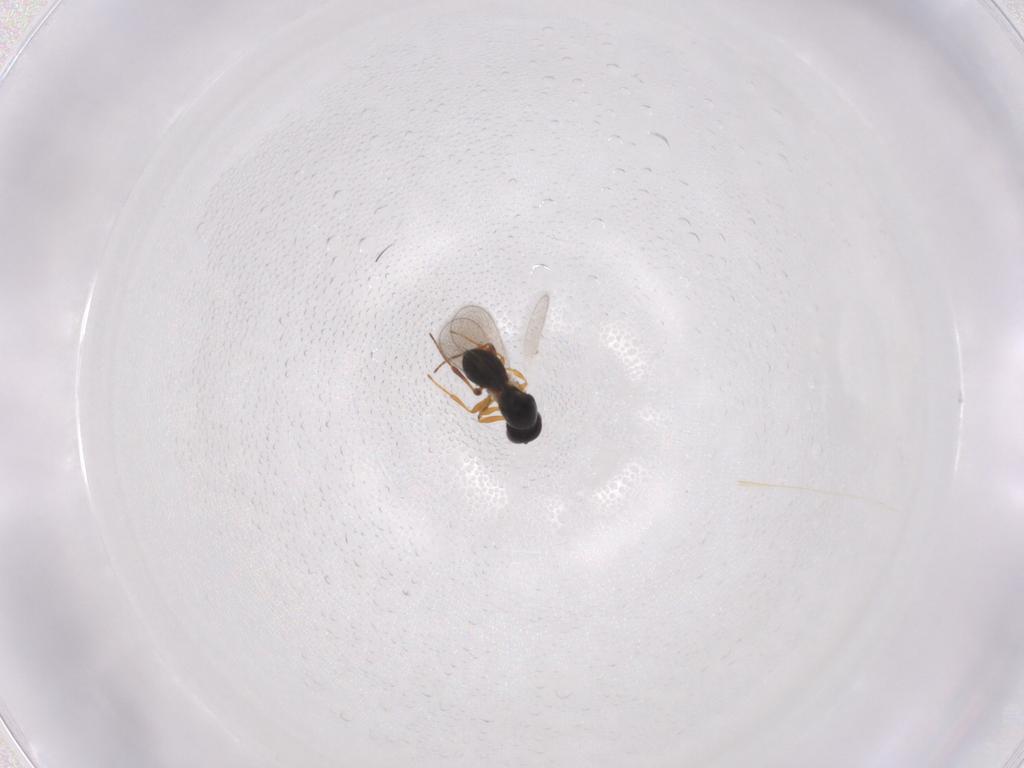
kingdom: Animalia
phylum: Arthropoda
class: Insecta
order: Hymenoptera
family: Platygastridae
